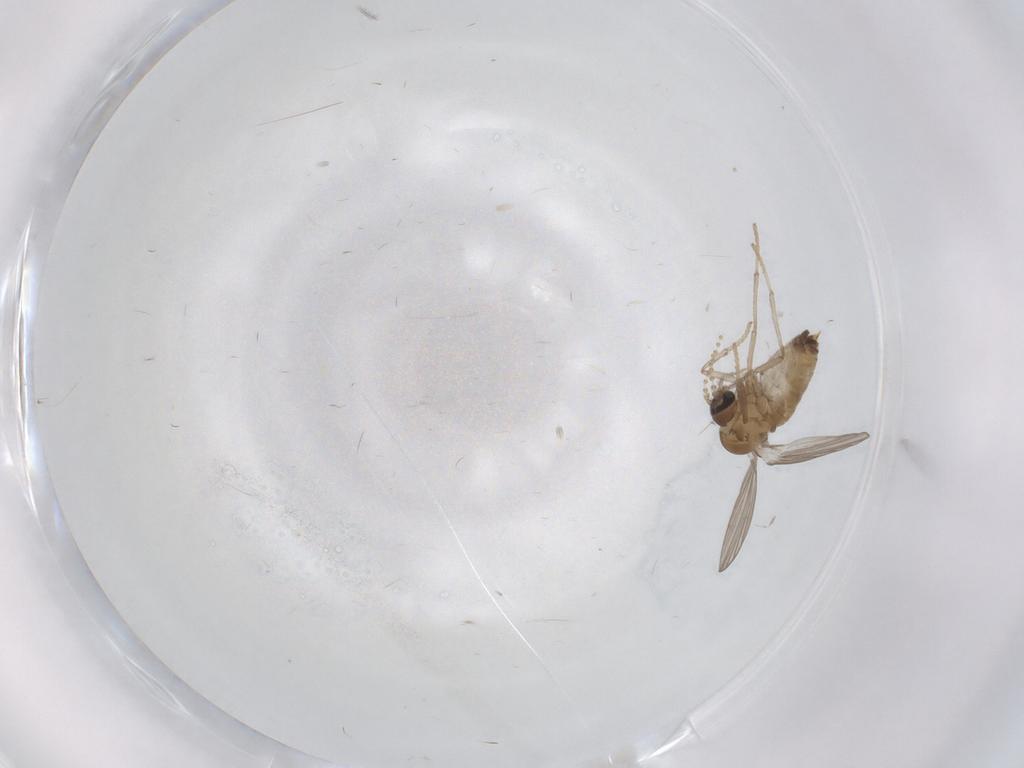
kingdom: Animalia
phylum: Arthropoda
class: Insecta
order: Diptera
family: Psychodidae
